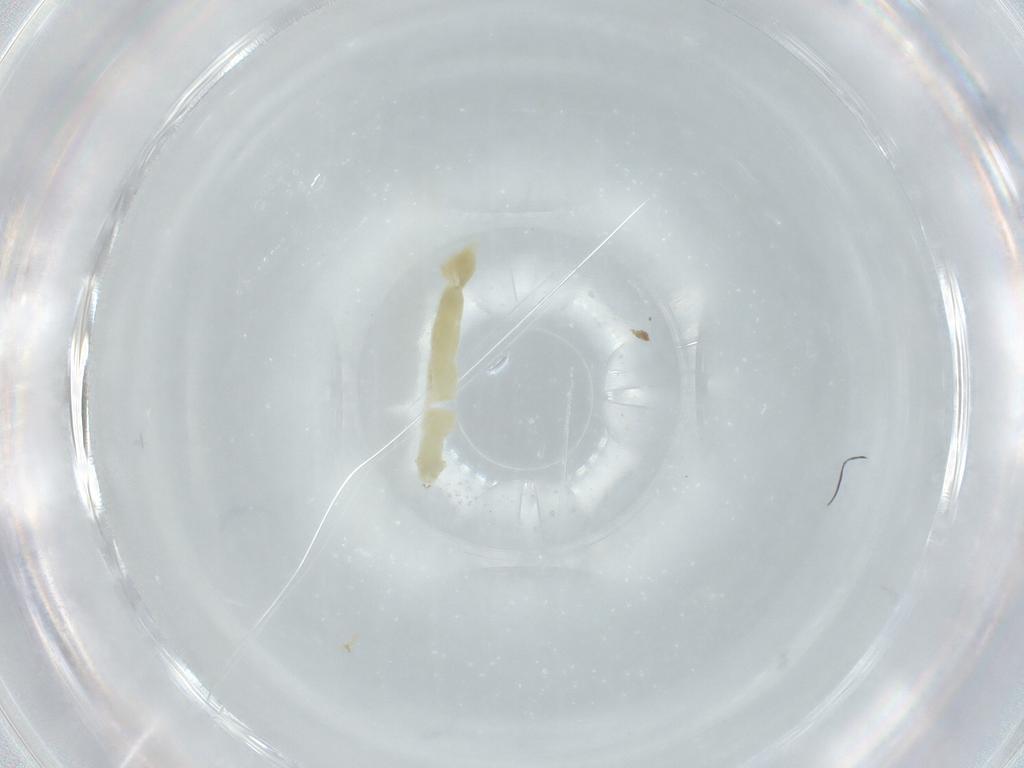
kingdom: Animalia
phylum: Arthropoda
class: Insecta
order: Diptera
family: Chironomidae
